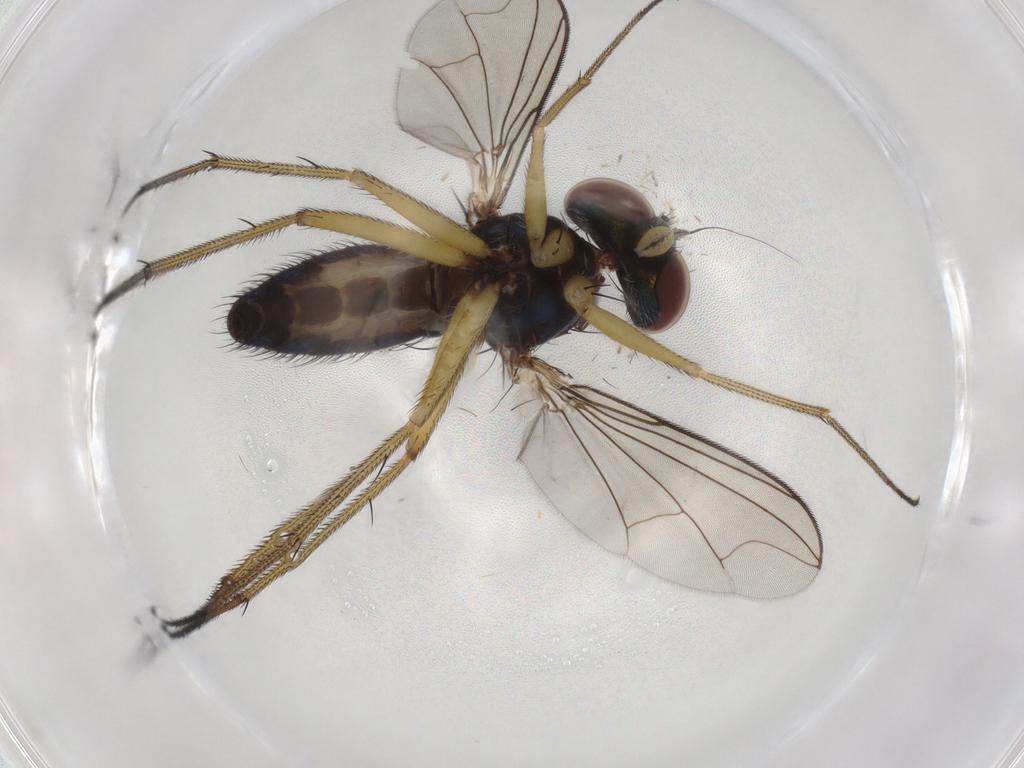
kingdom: Animalia
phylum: Arthropoda
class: Insecta
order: Diptera
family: Dolichopodidae
